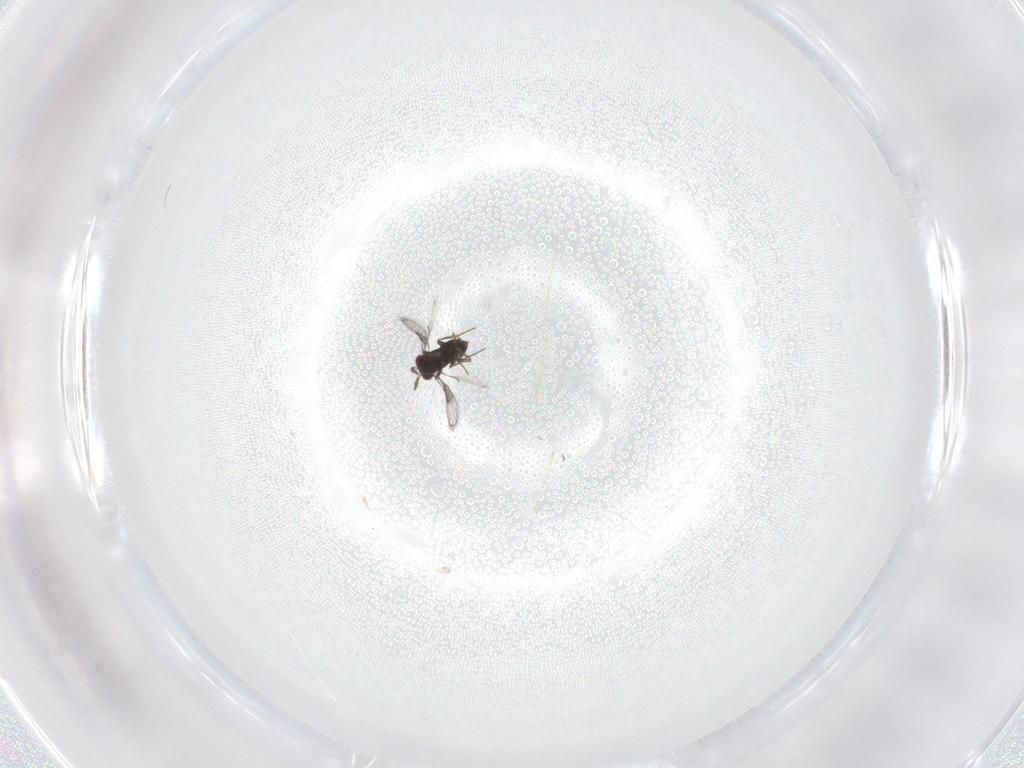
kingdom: Animalia
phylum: Arthropoda
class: Insecta
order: Hymenoptera
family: Trichogrammatidae
